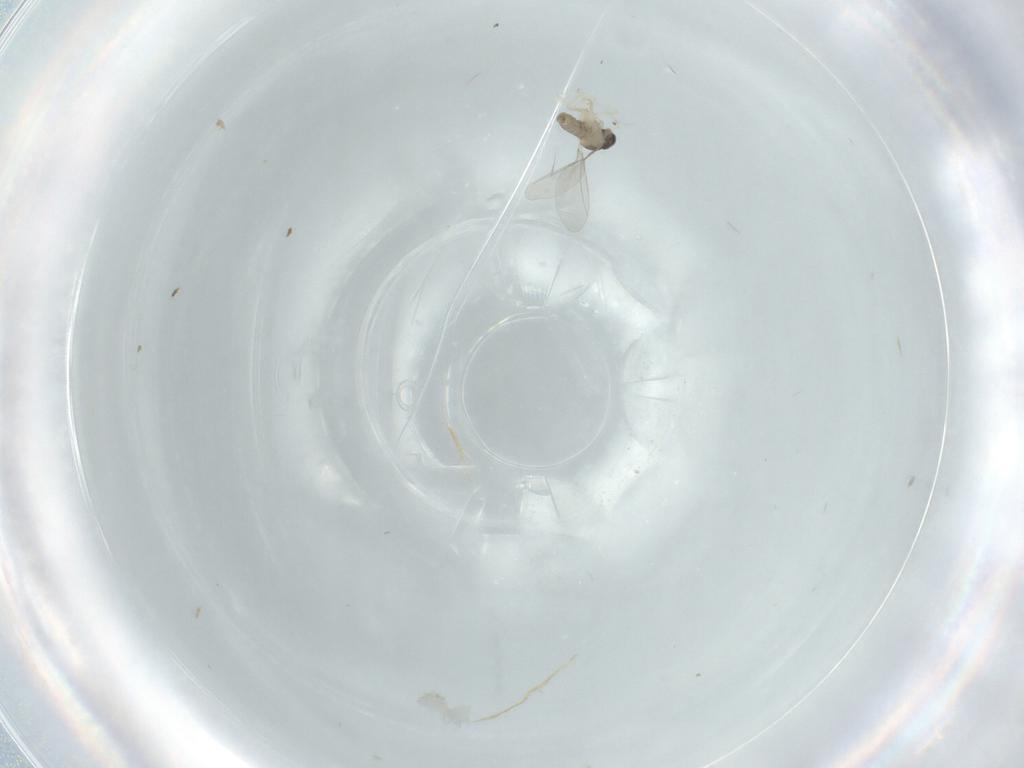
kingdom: Animalia
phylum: Arthropoda
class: Insecta
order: Diptera
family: Cecidomyiidae
